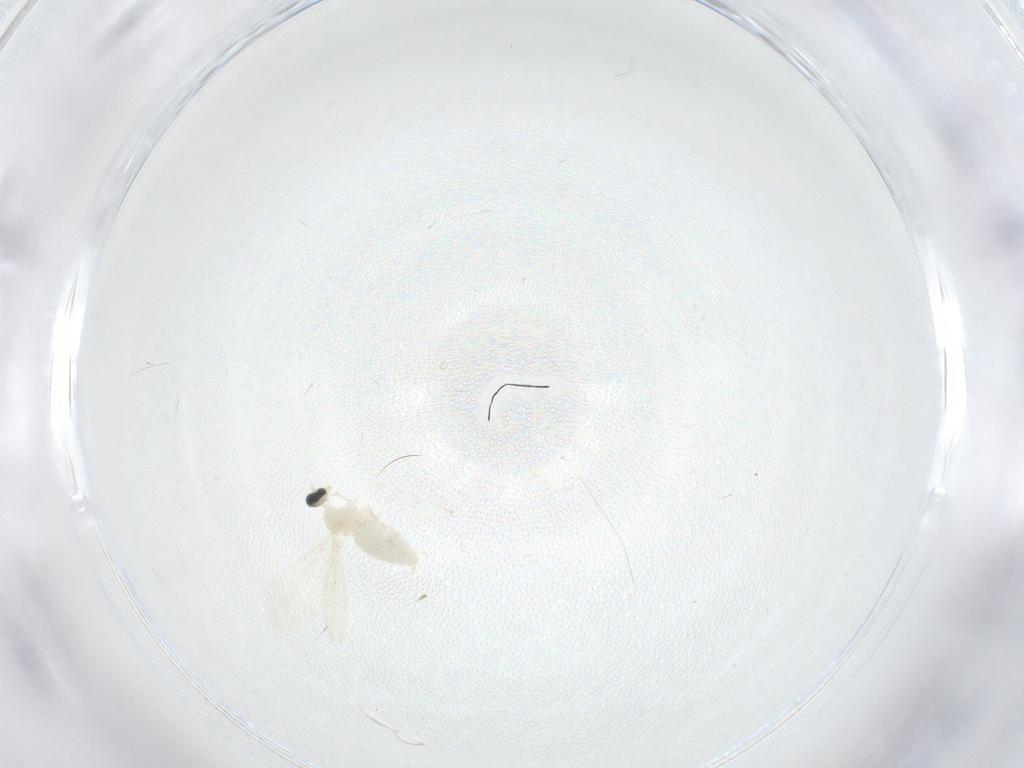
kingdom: Animalia
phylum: Arthropoda
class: Insecta
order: Diptera
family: Cecidomyiidae
